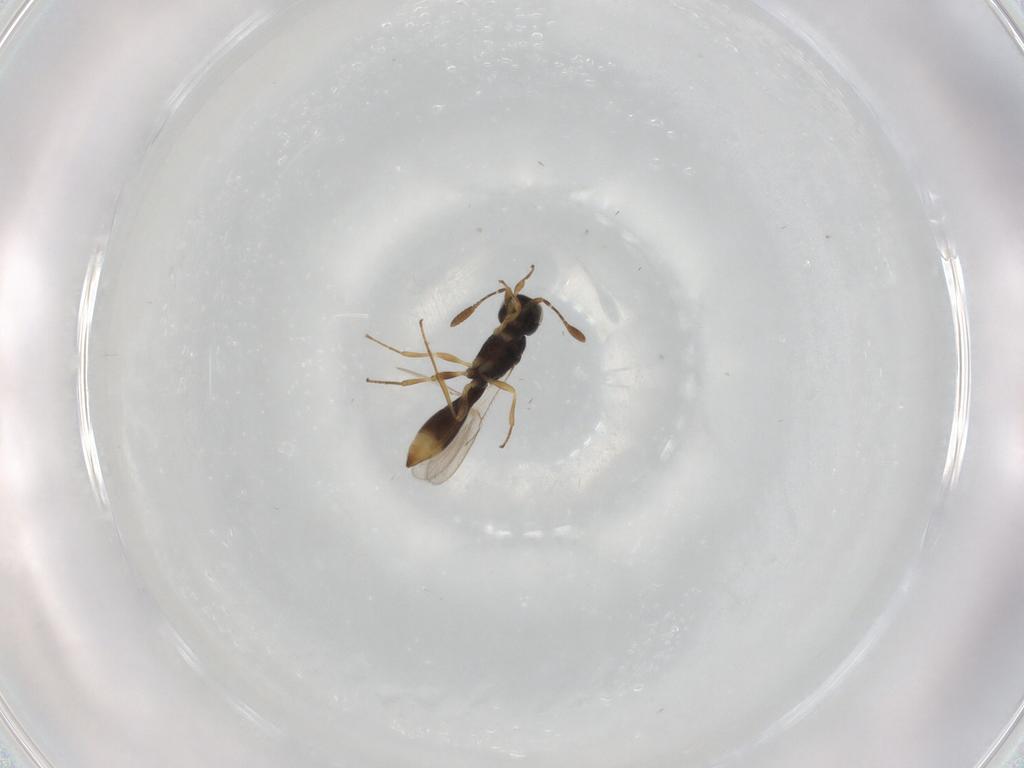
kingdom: Animalia
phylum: Arthropoda
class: Insecta
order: Hymenoptera
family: Scelionidae
